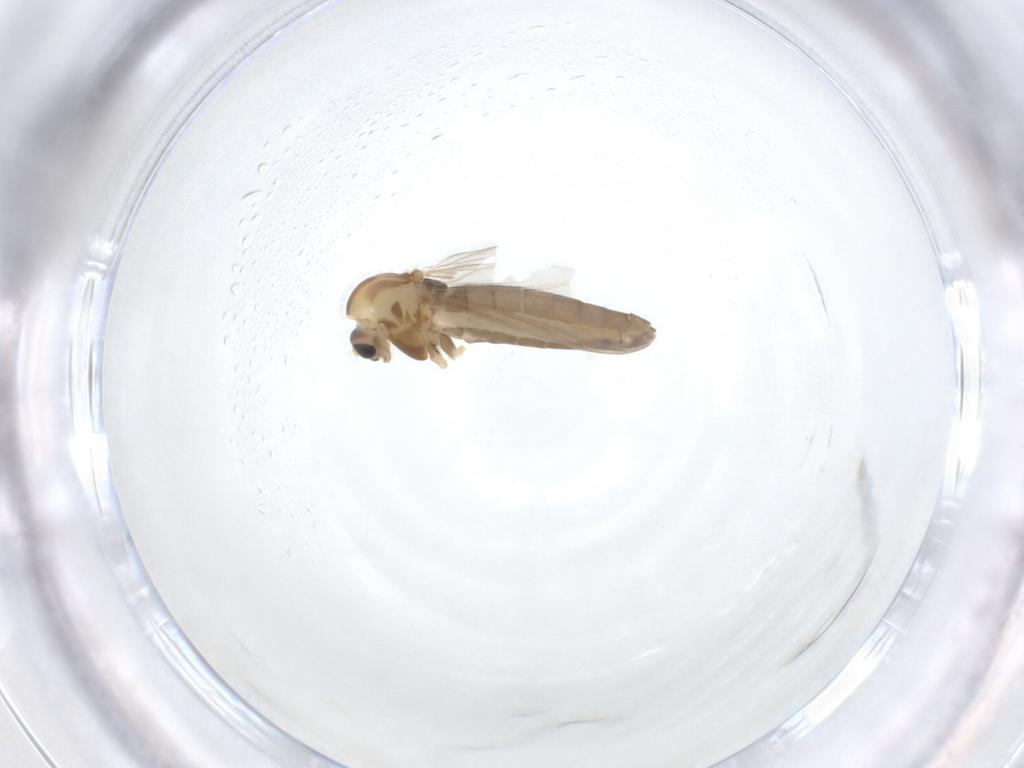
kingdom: Animalia
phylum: Arthropoda
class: Insecta
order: Diptera
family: Chironomidae
